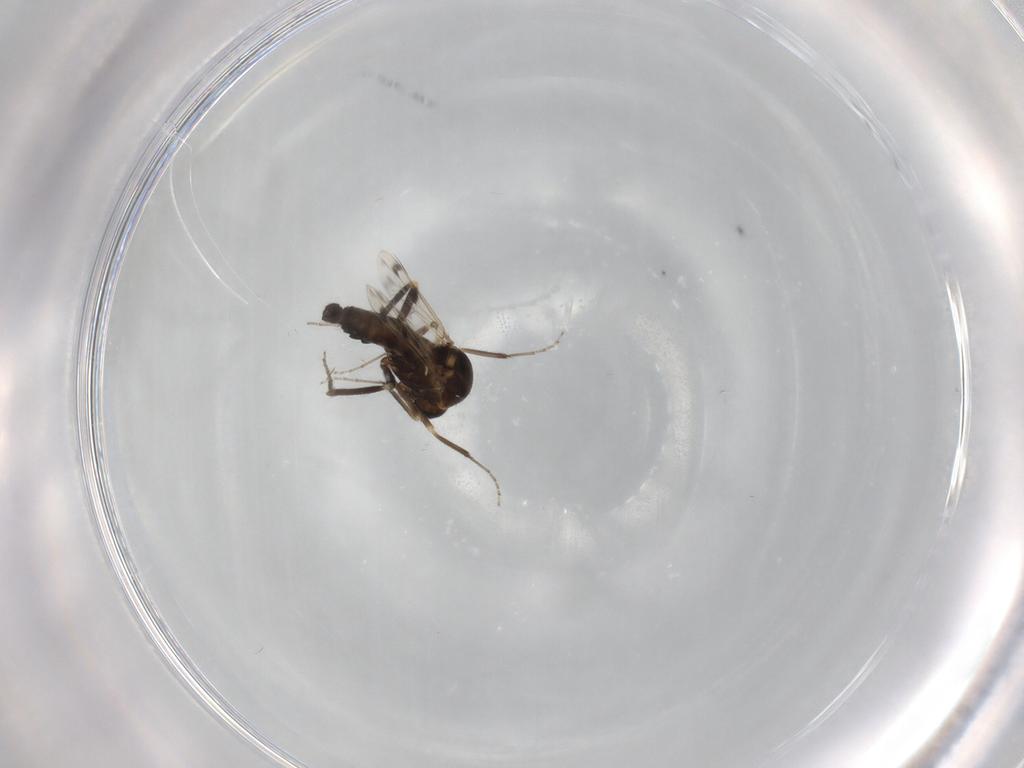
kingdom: Animalia
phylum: Arthropoda
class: Insecta
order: Diptera
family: Ceratopogonidae
